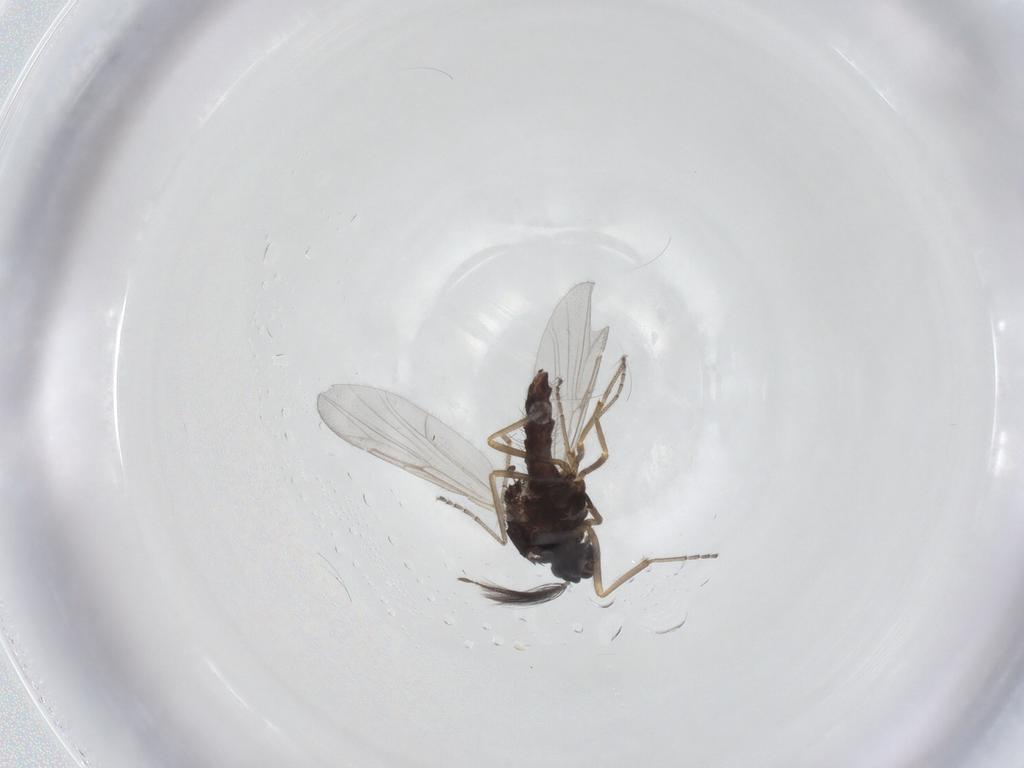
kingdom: Animalia
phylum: Arthropoda
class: Insecta
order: Diptera
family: Ceratopogonidae
